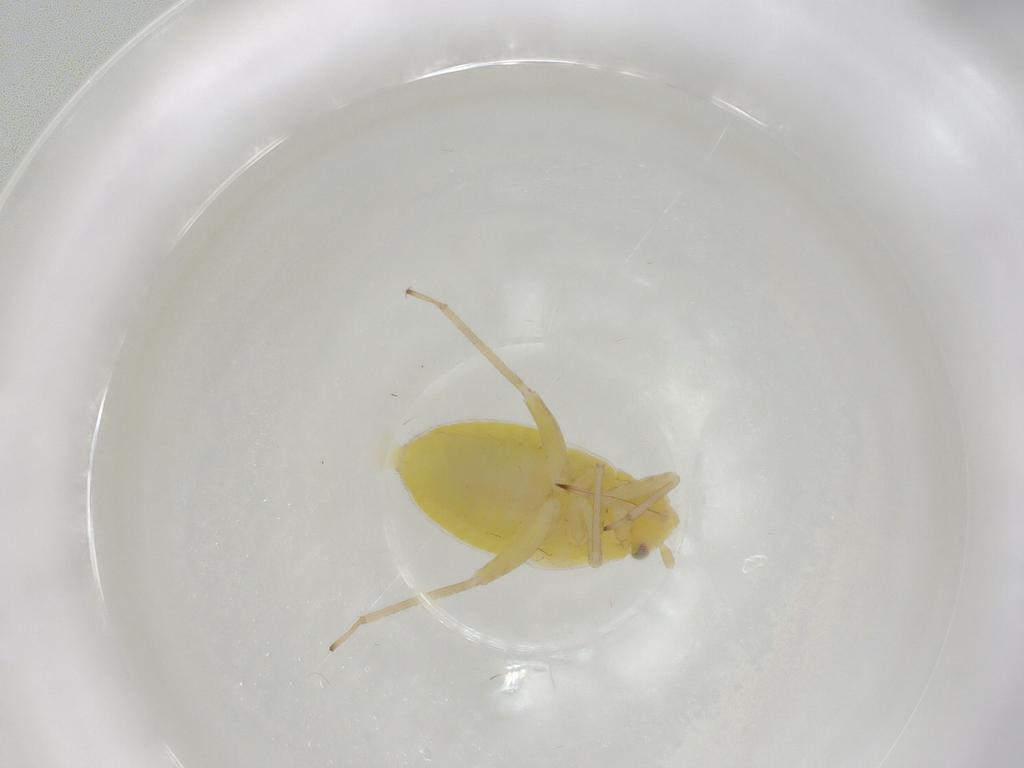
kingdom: Animalia
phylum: Arthropoda
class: Insecta
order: Hemiptera
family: Miridae
